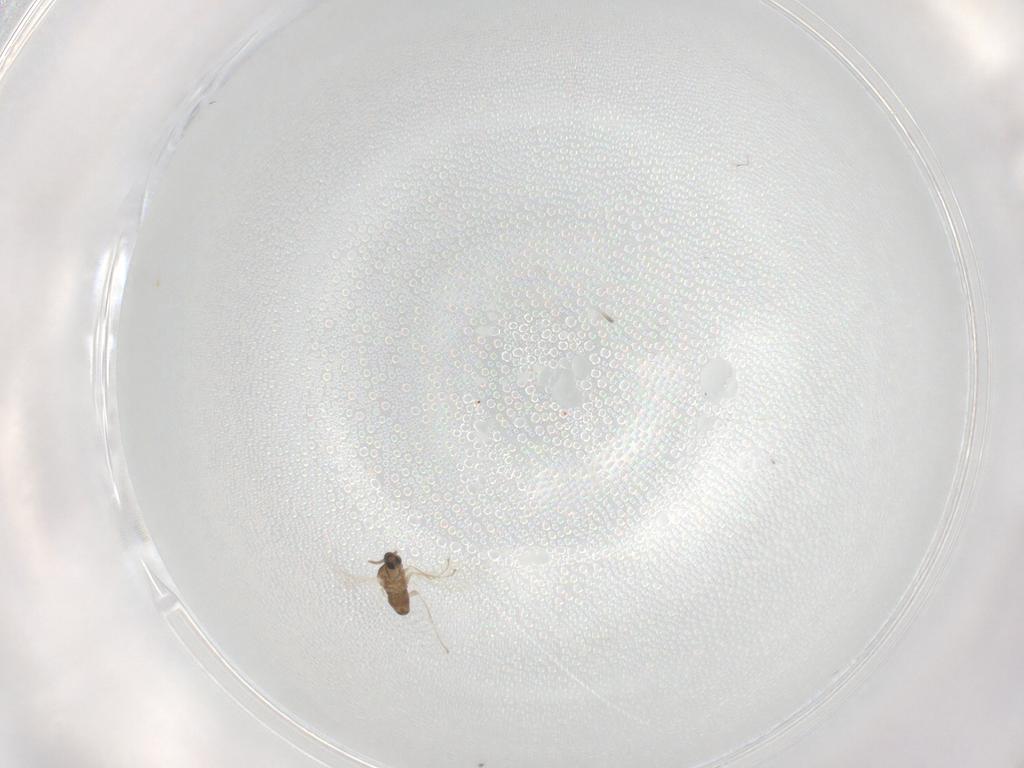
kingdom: Animalia
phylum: Arthropoda
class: Insecta
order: Diptera
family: Cecidomyiidae
